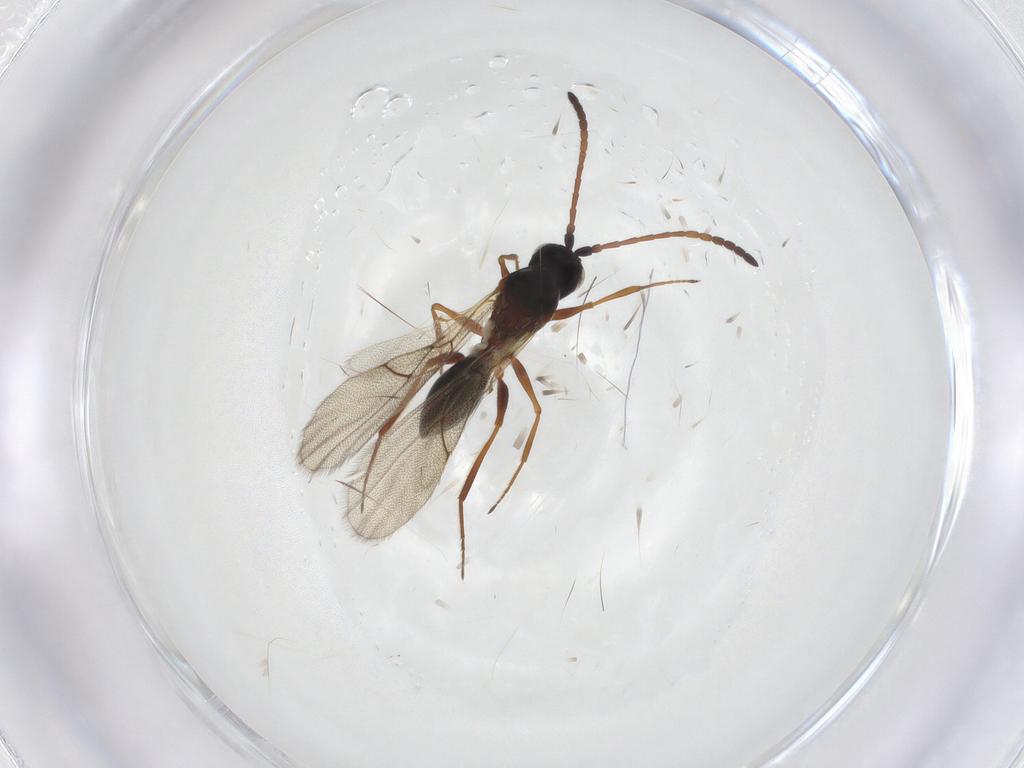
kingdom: Animalia
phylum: Arthropoda
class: Insecta
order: Hymenoptera
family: Figitidae
